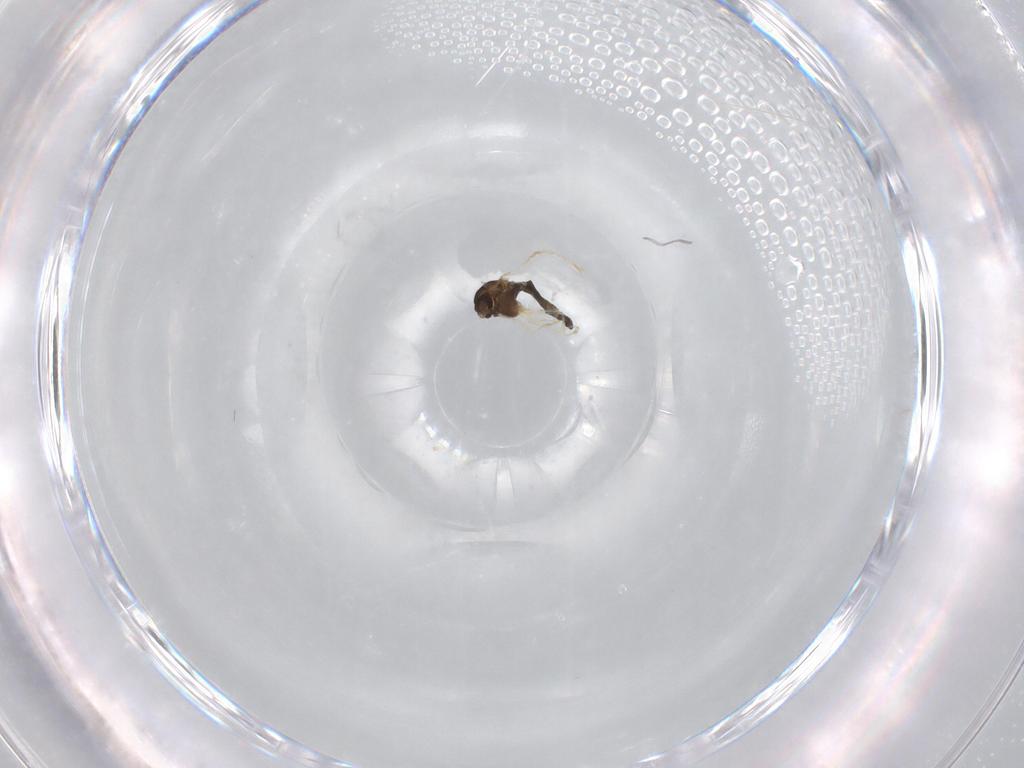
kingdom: Animalia
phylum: Arthropoda
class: Insecta
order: Diptera
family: Chironomidae
